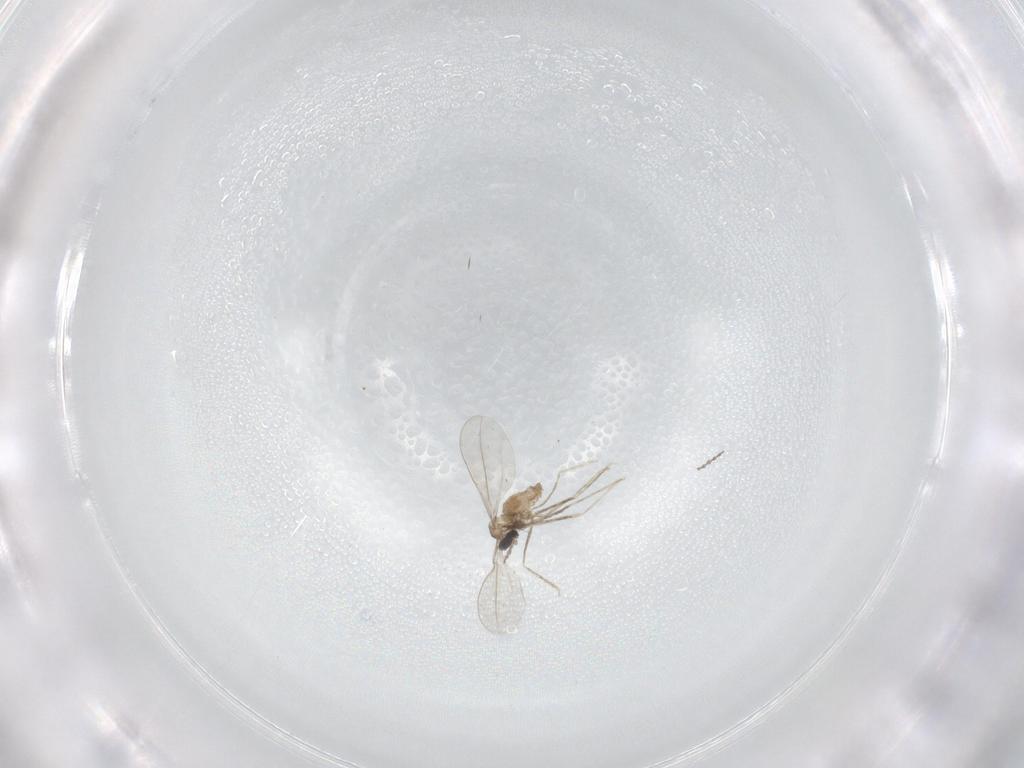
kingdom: Animalia
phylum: Arthropoda
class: Insecta
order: Diptera
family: Cecidomyiidae
